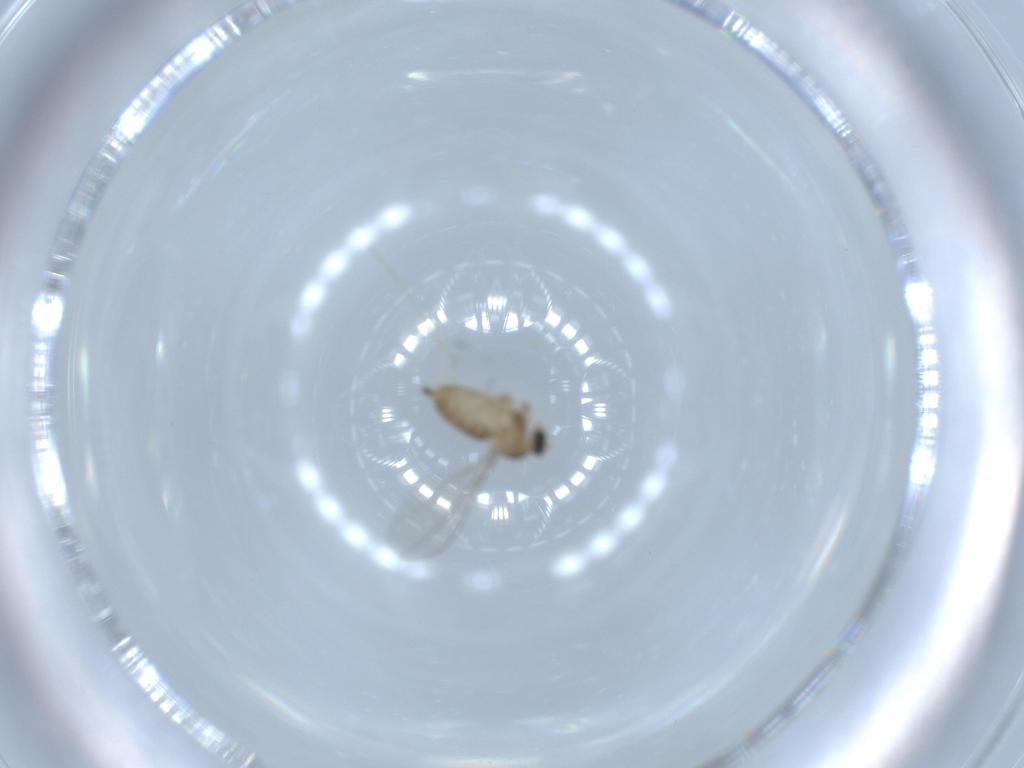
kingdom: Animalia
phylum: Arthropoda
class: Insecta
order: Diptera
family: Cecidomyiidae
